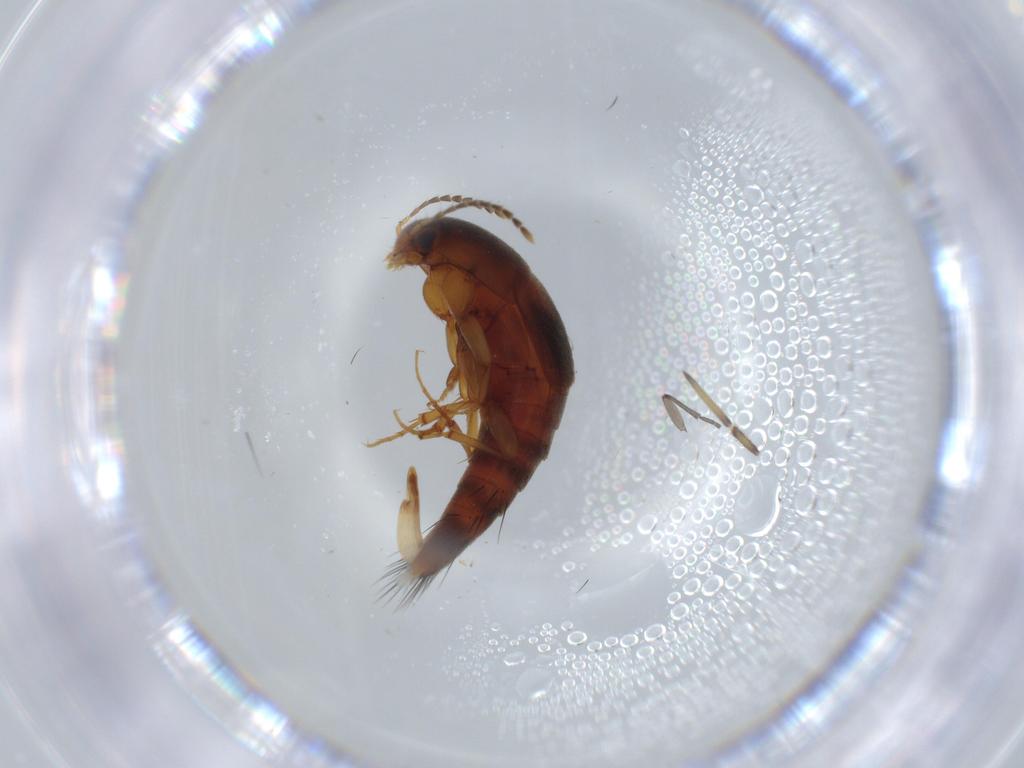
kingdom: Animalia
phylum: Arthropoda
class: Insecta
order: Coleoptera
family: Staphylinidae
